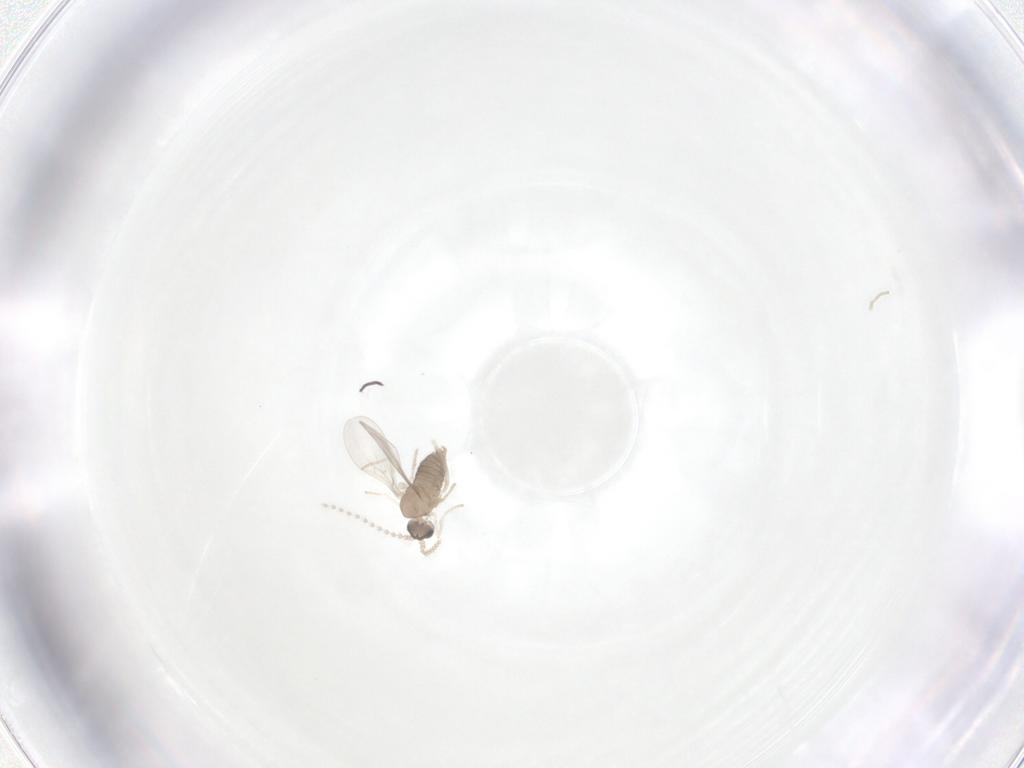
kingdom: Animalia
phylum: Arthropoda
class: Insecta
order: Diptera
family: Cecidomyiidae
